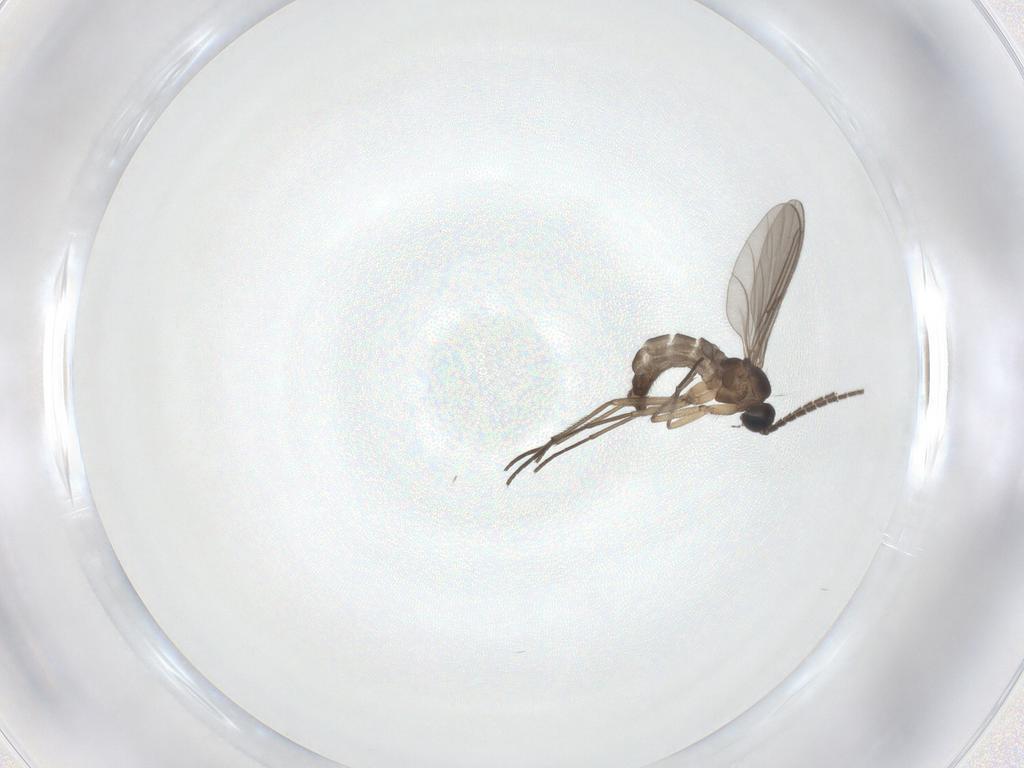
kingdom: Animalia
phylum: Arthropoda
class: Insecta
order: Diptera
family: Sciaridae
